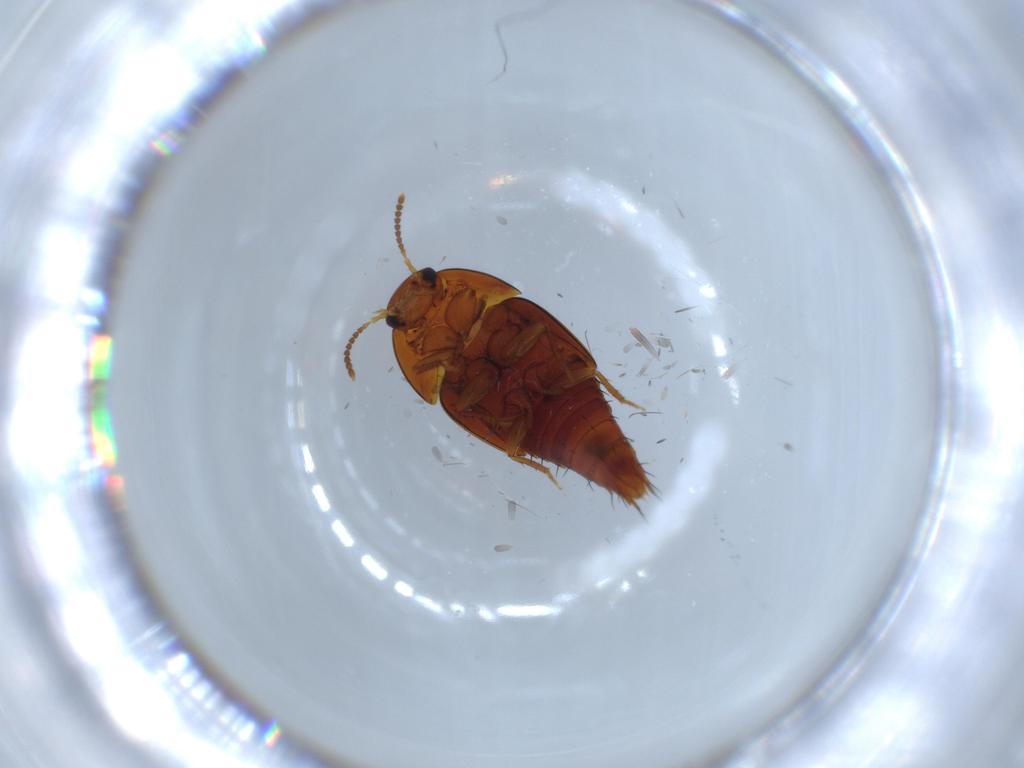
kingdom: Animalia
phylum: Arthropoda
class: Insecta
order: Coleoptera
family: Staphylinidae
